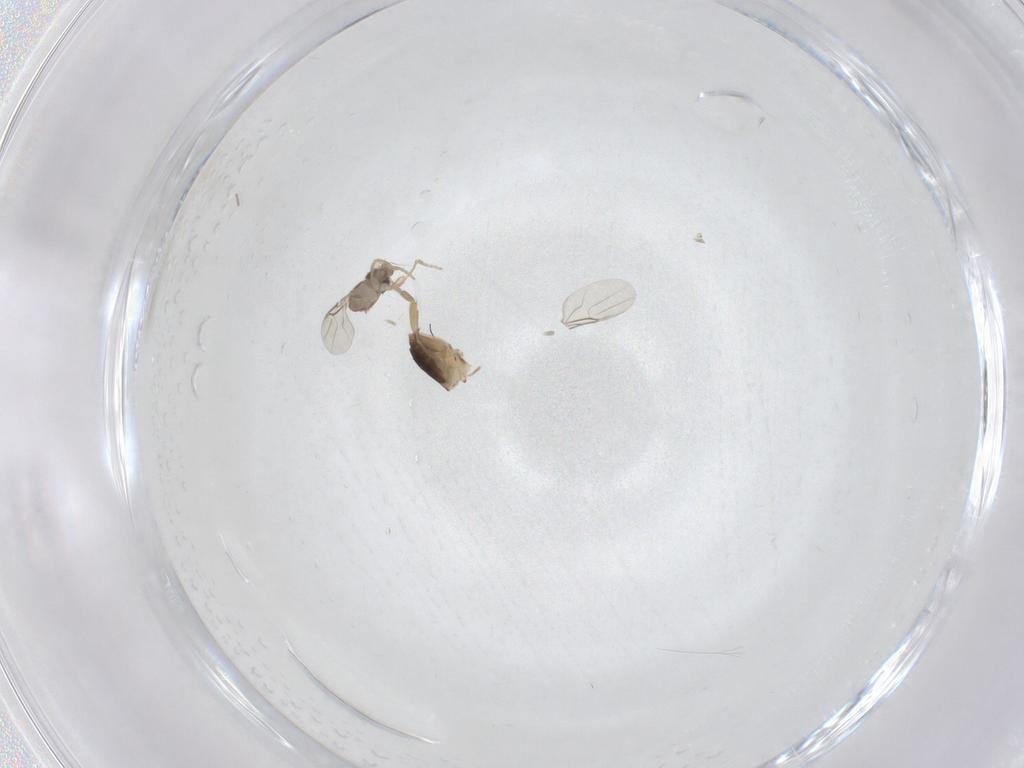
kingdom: Animalia
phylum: Arthropoda
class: Insecta
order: Diptera
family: Phoridae
